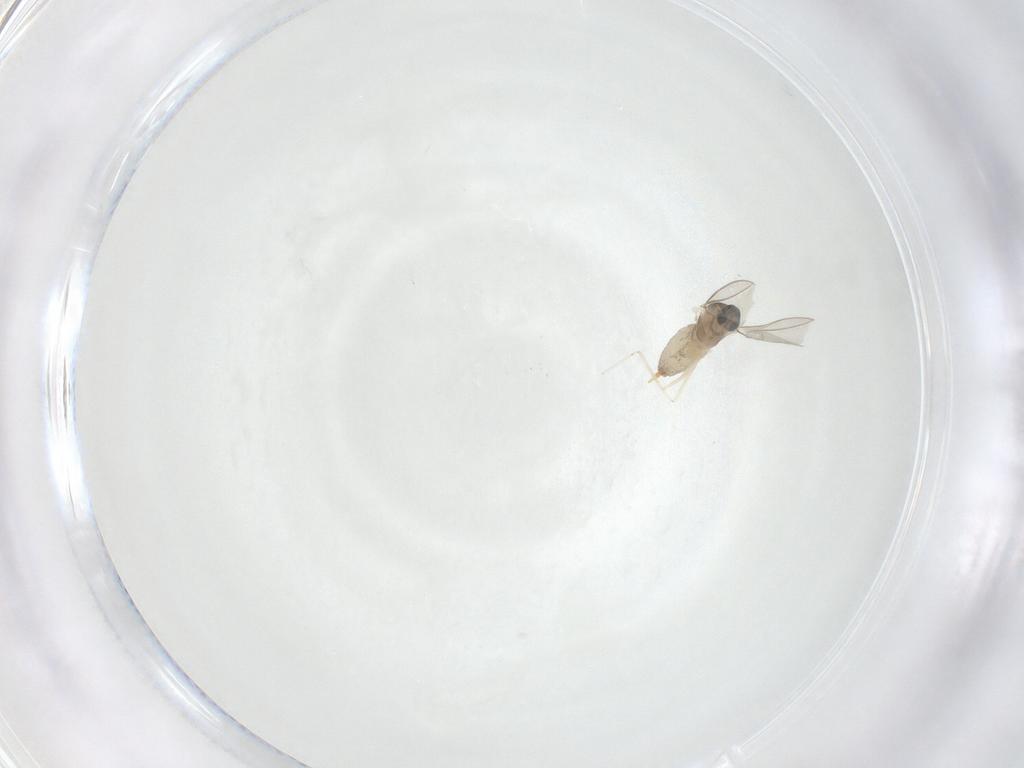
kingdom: Animalia
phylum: Arthropoda
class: Insecta
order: Diptera
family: Cecidomyiidae
